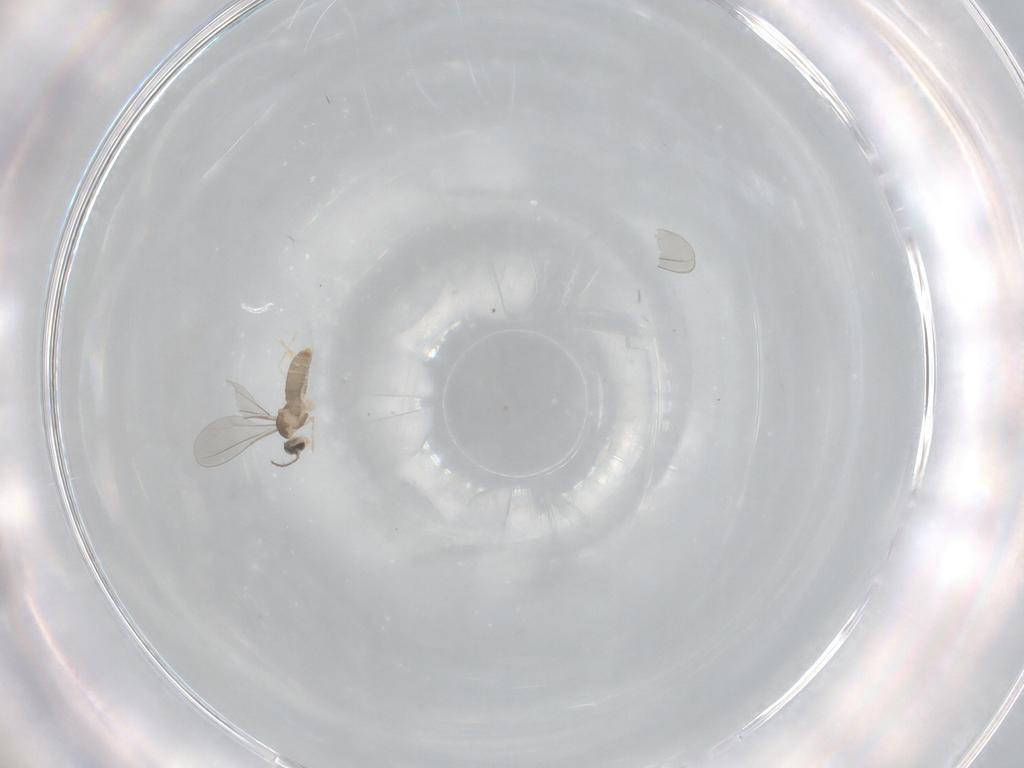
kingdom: Animalia
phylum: Arthropoda
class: Insecta
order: Diptera
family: Cecidomyiidae
